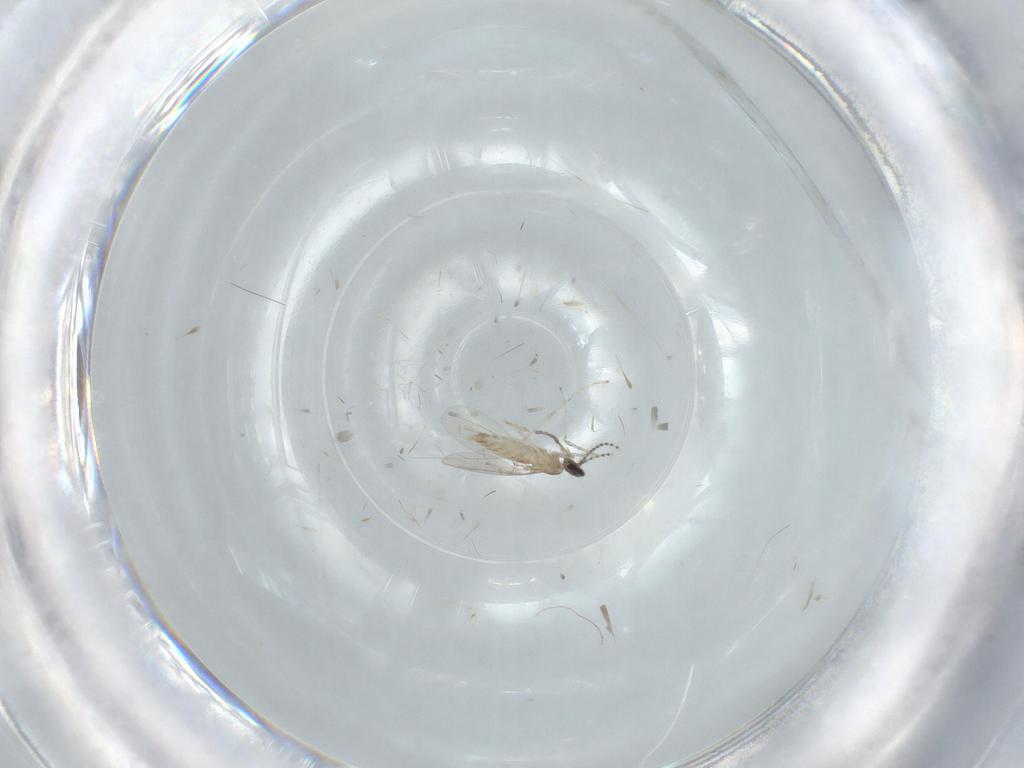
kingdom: Animalia
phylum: Arthropoda
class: Insecta
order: Diptera
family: Cecidomyiidae
